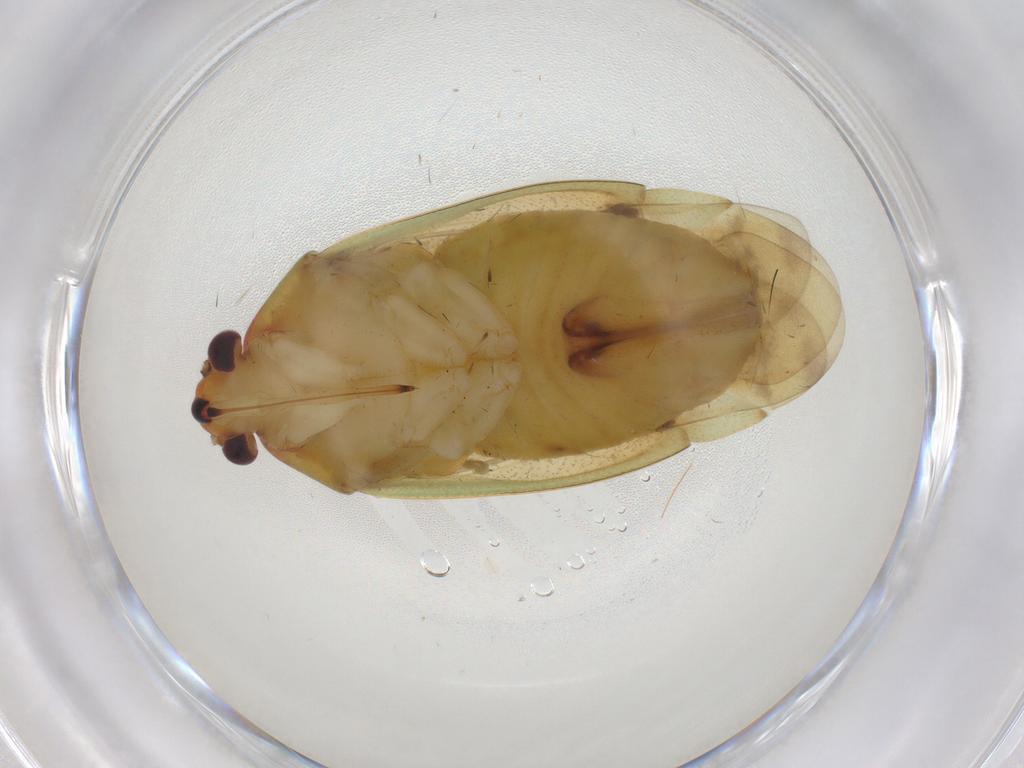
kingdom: Animalia
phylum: Arthropoda
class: Insecta
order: Hemiptera
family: Miridae
